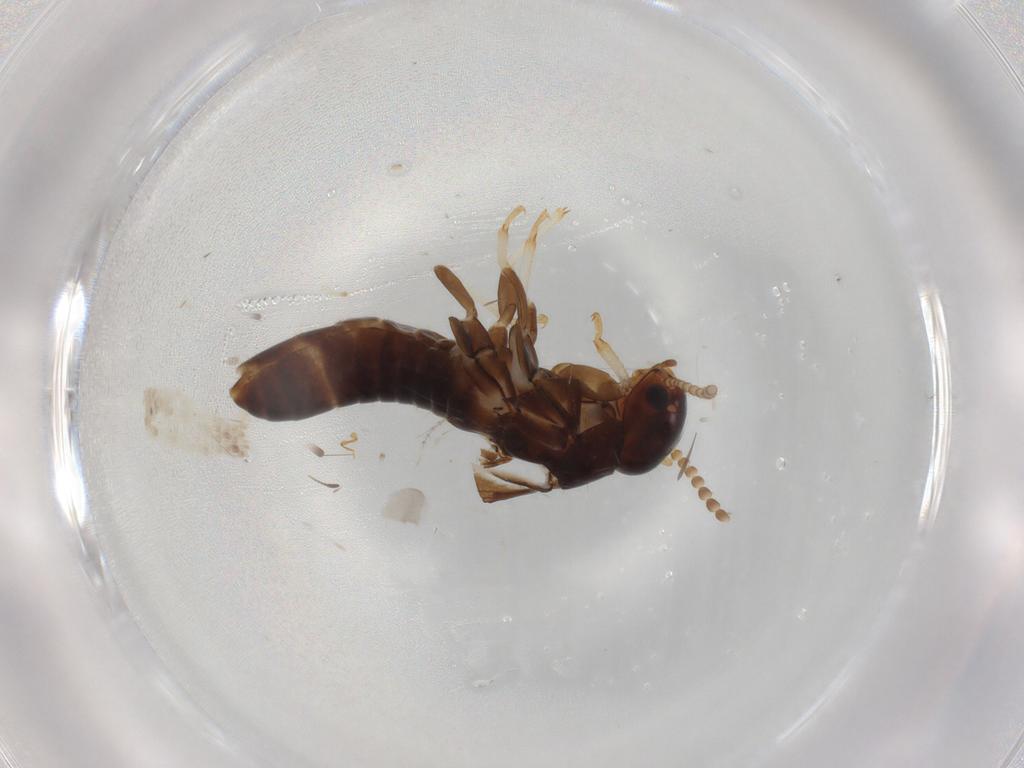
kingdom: Animalia
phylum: Arthropoda
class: Insecta
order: Blattodea
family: Kalotermitidae
